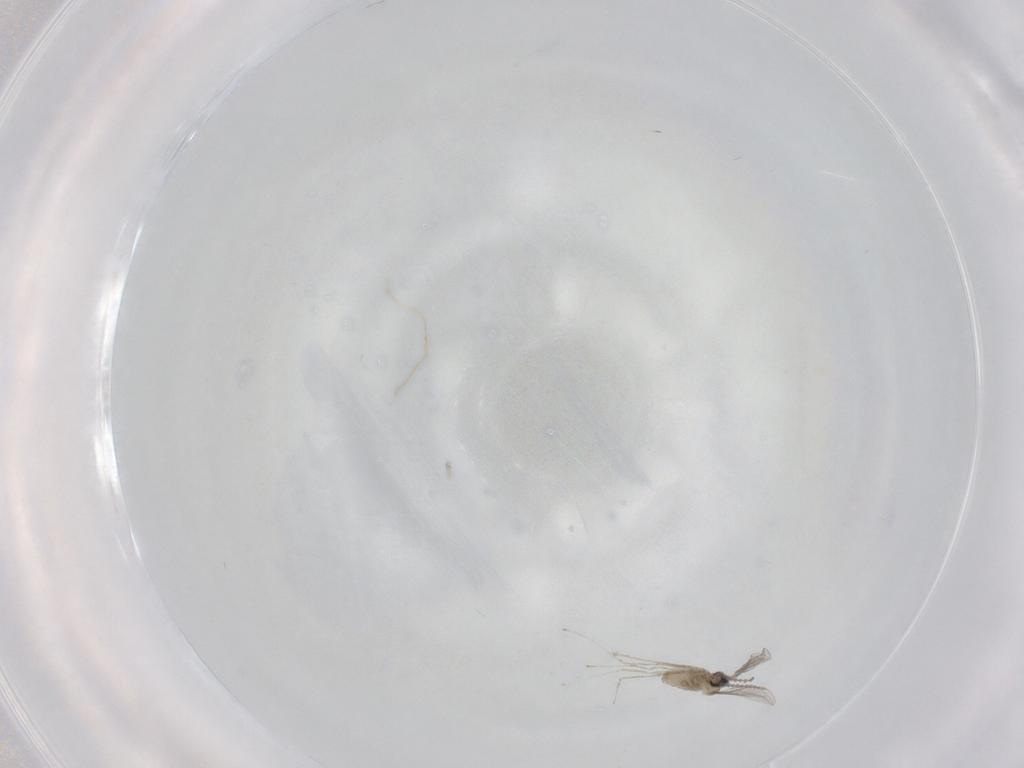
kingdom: Animalia
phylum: Arthropoda
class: Insecta
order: Diptera
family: Cecidomyiidae
